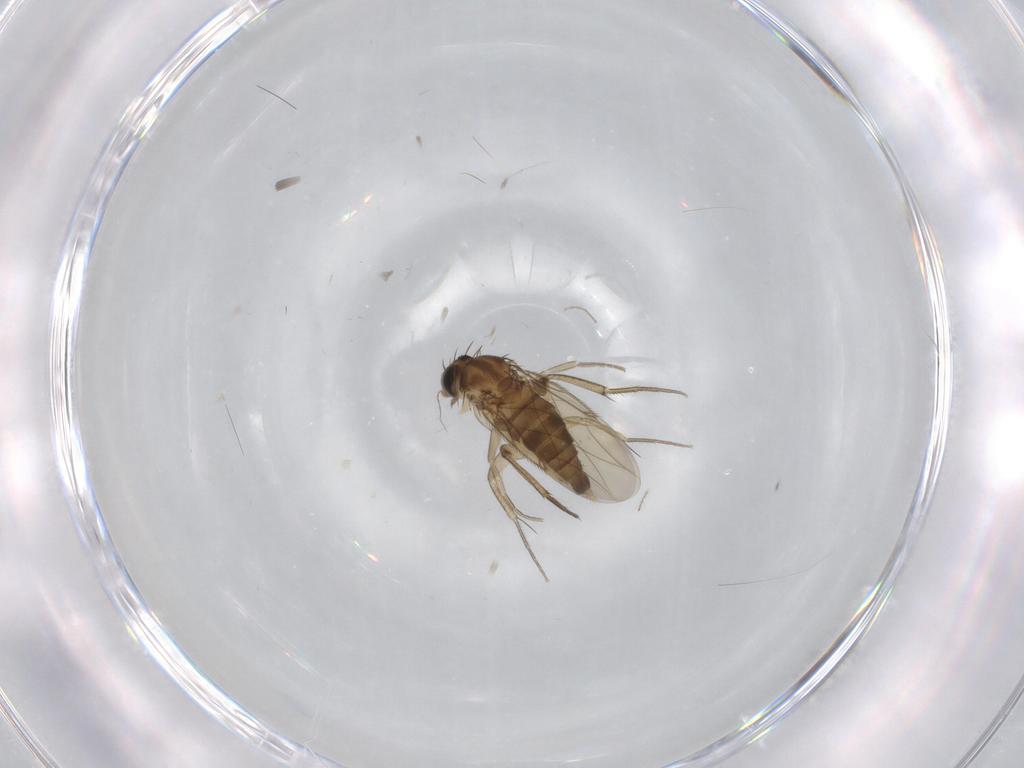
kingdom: Animalia
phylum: Arthropoda
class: Insecta
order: Diptera
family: Phoridae
